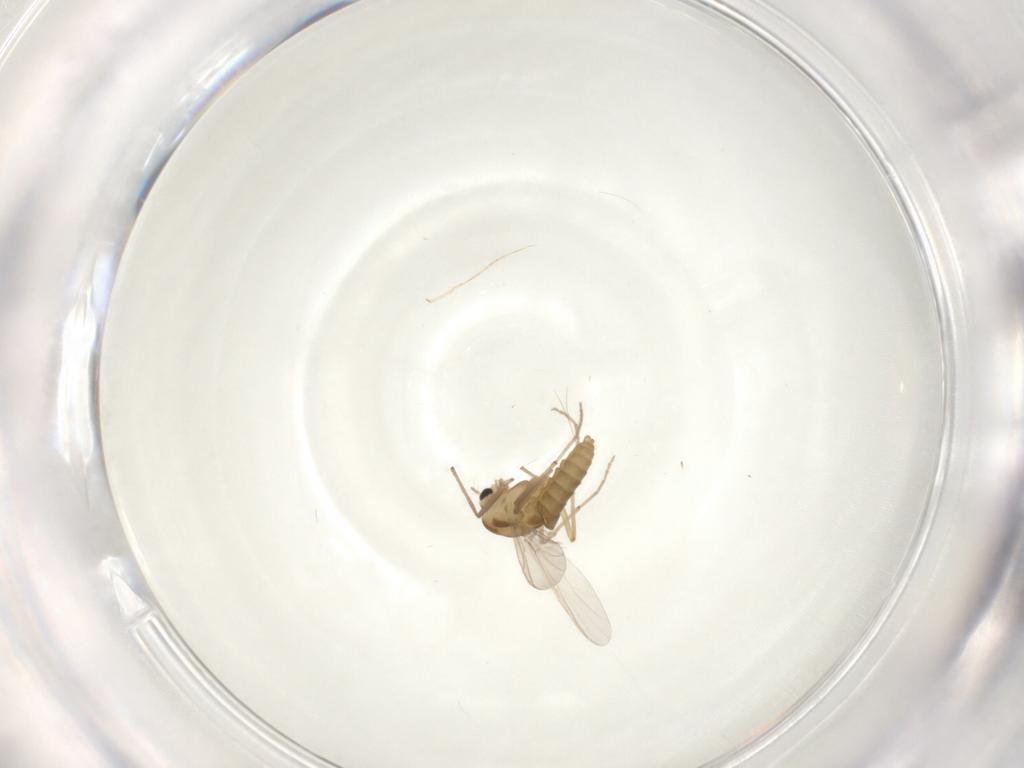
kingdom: Animalia
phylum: Arthropoda
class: Insecta
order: Diptera
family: Chironomidae
